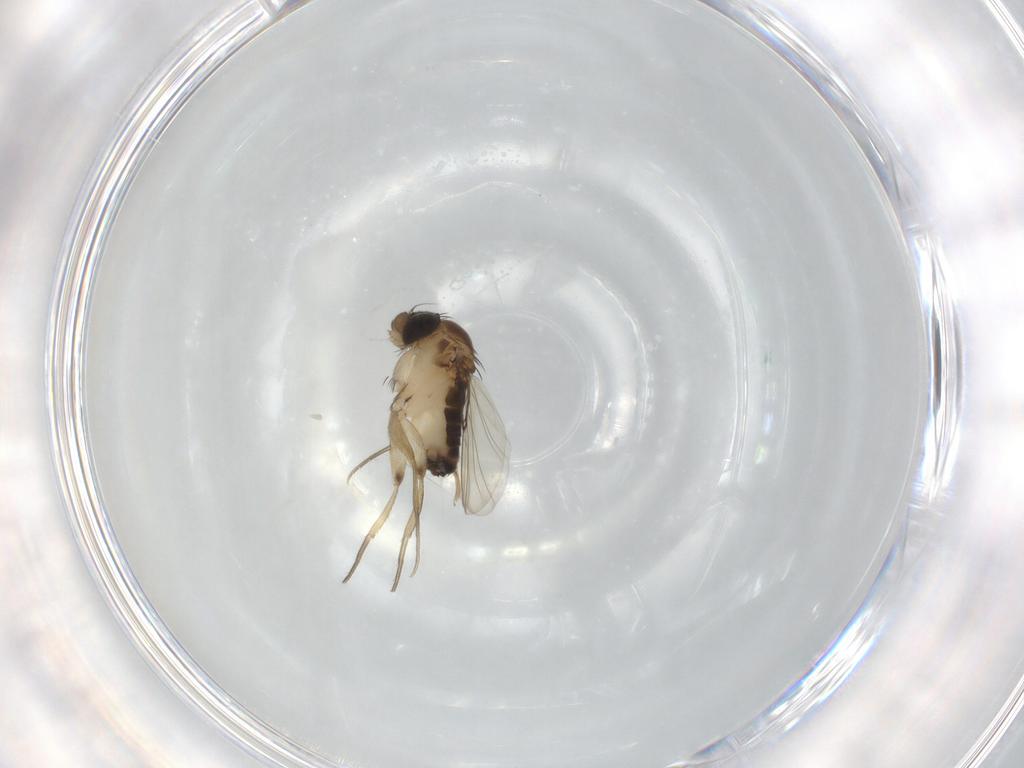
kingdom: Animalia
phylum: Arthropoda
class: Insecta
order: Diptera
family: Phoridae
